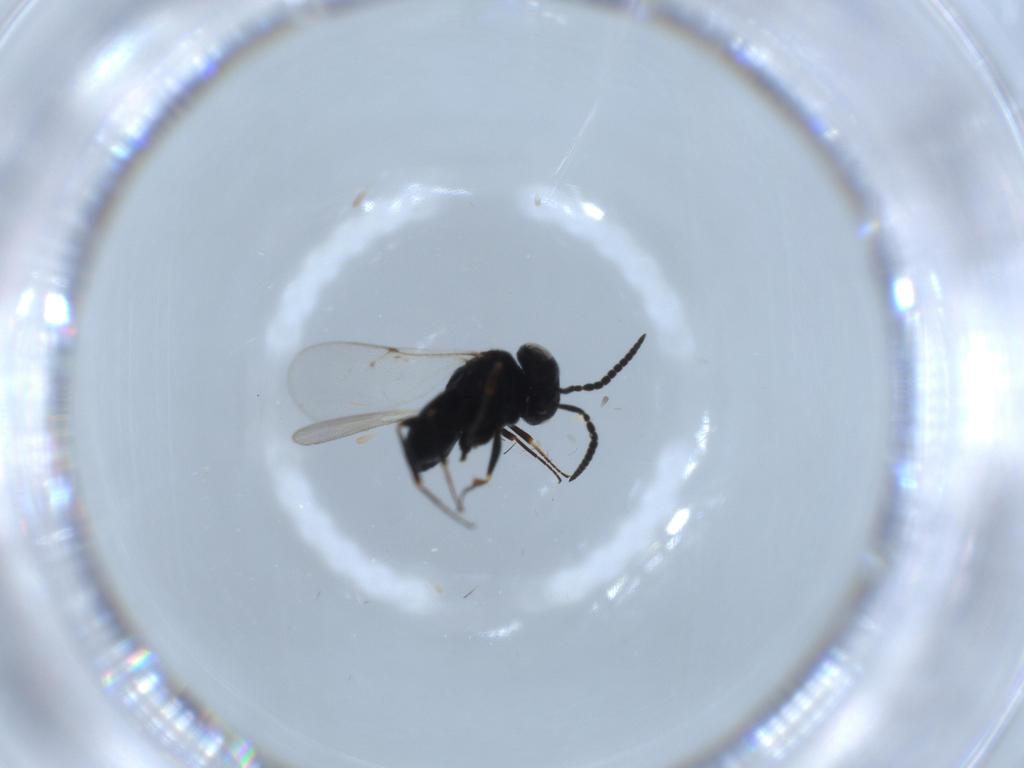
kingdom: Animalia
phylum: Arthropoda
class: Insecta
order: Hymenoptera
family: Scelionidae
